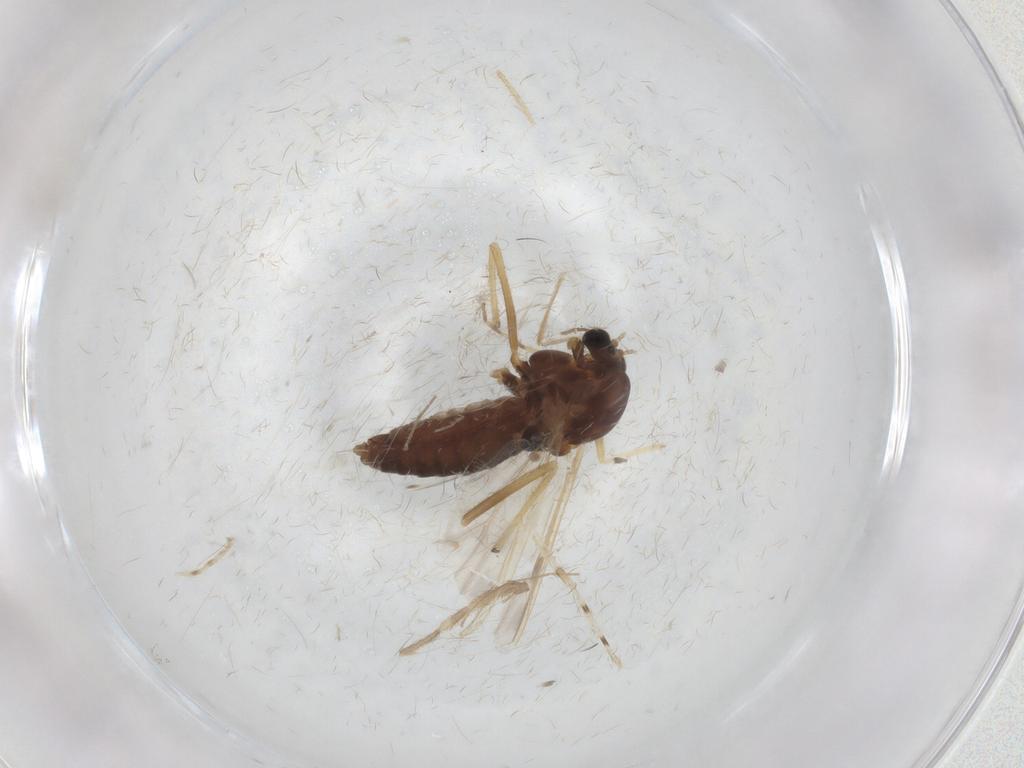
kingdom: Animalia
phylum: Arthropoda
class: Insecta
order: Diptera
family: Chironomidae
